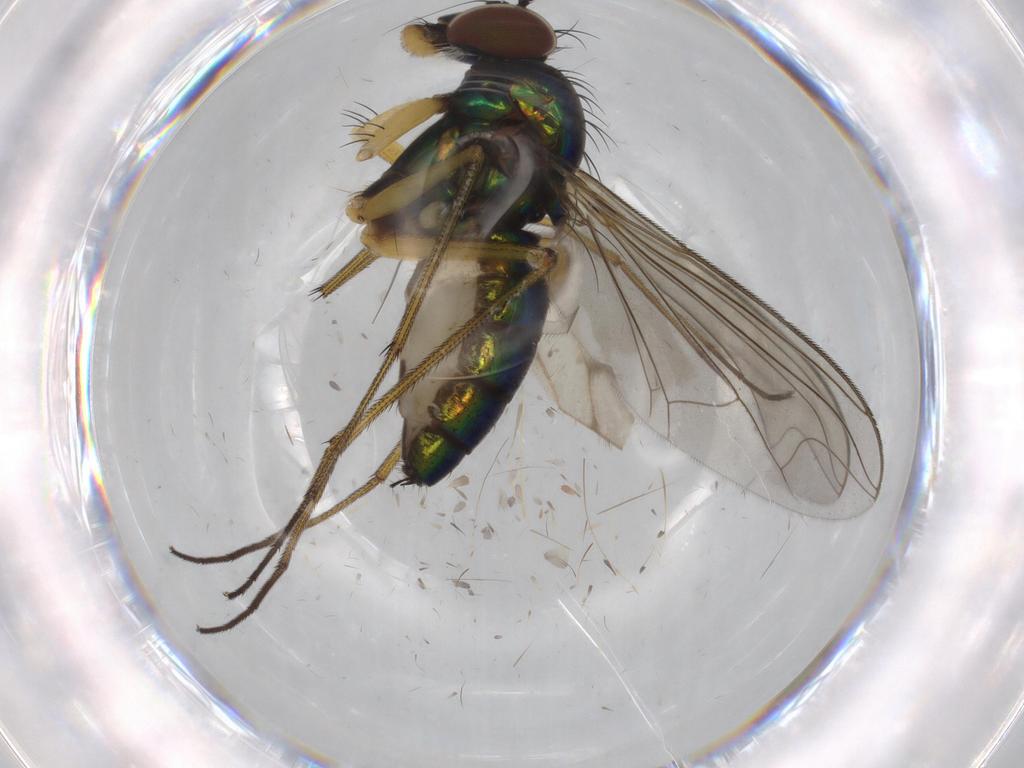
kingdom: Animalia
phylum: Arthropoda
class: Insecta
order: Diptera
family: Dolichopodidae
